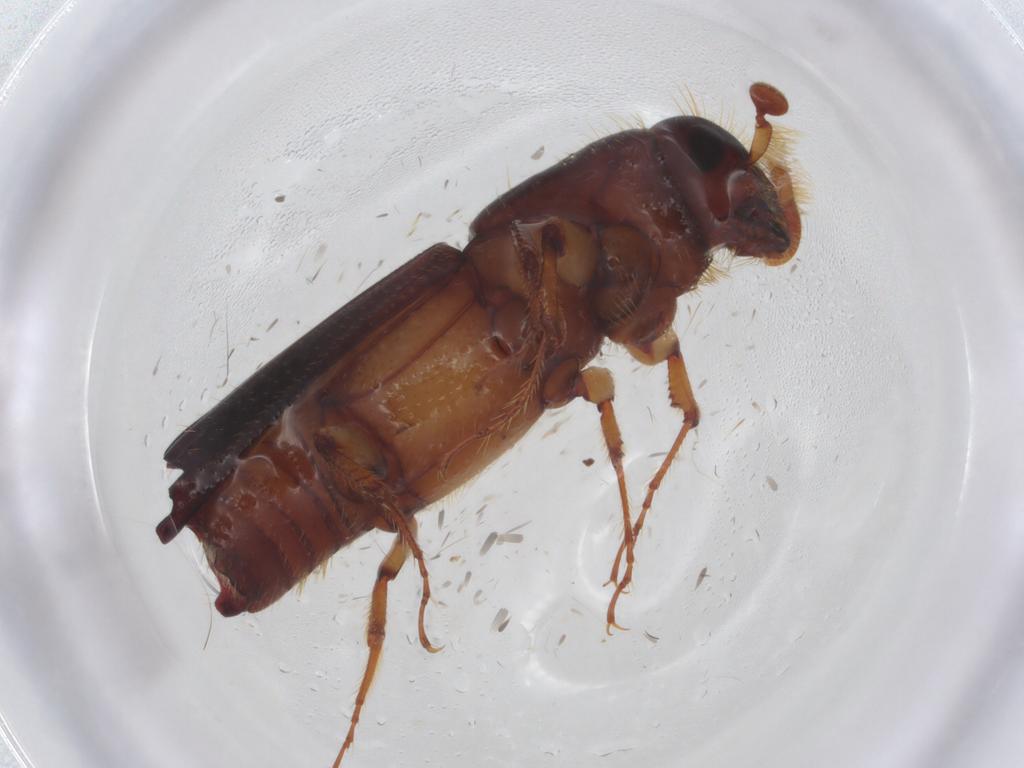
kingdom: Animalia
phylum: Arthropoda
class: Insecta
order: Coleoptera
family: Curculionidae
